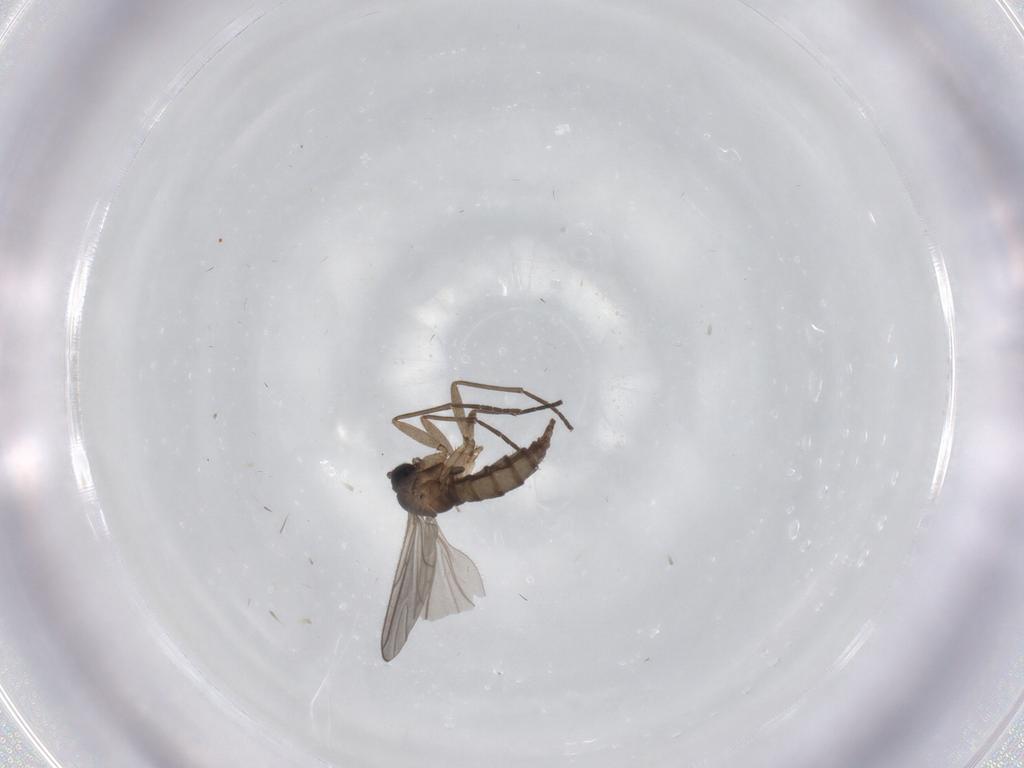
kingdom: Animalia
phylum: Arthropoda
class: Insecta
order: Diptera
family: Phoridae
